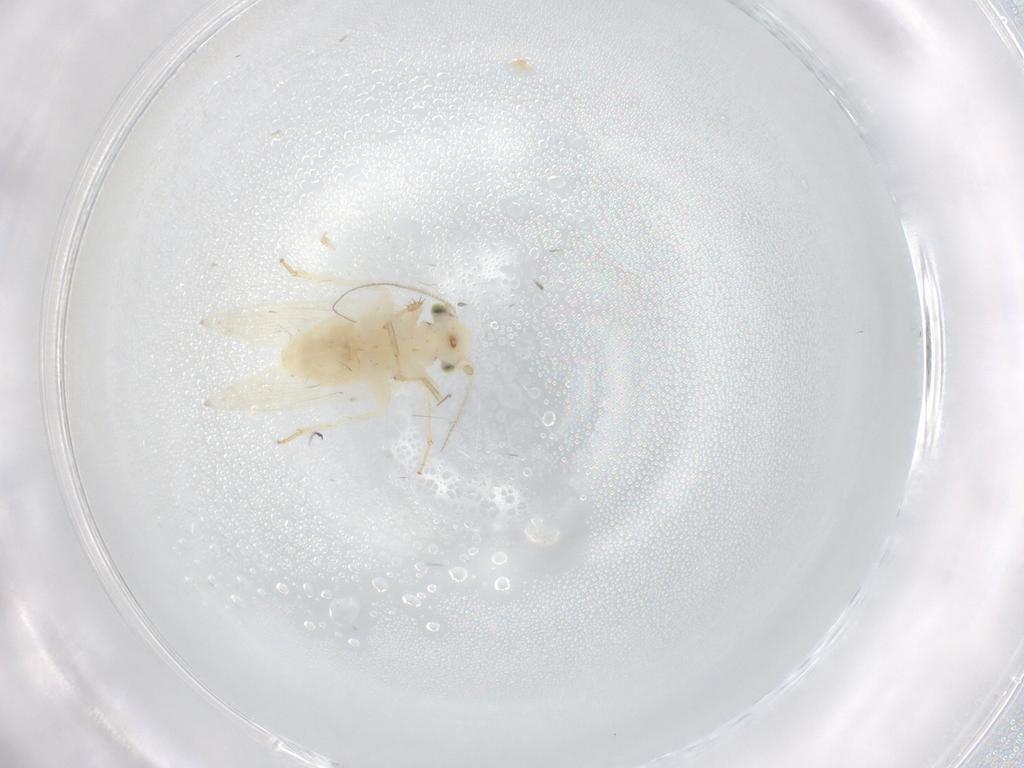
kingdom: Animalia
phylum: Arthropoda
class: Insecta
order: Psocodea
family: Lepidopsocidae
